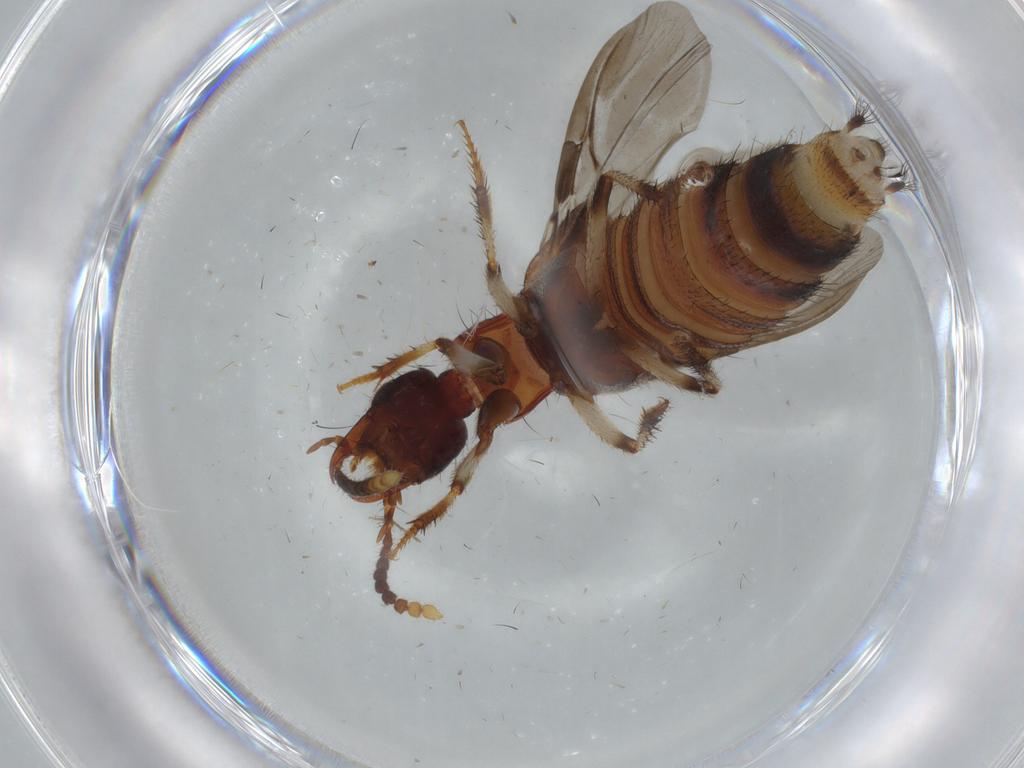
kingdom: Animalia
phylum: Arthropoda
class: Insecta
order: Coleoptera
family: Staphylinidae
